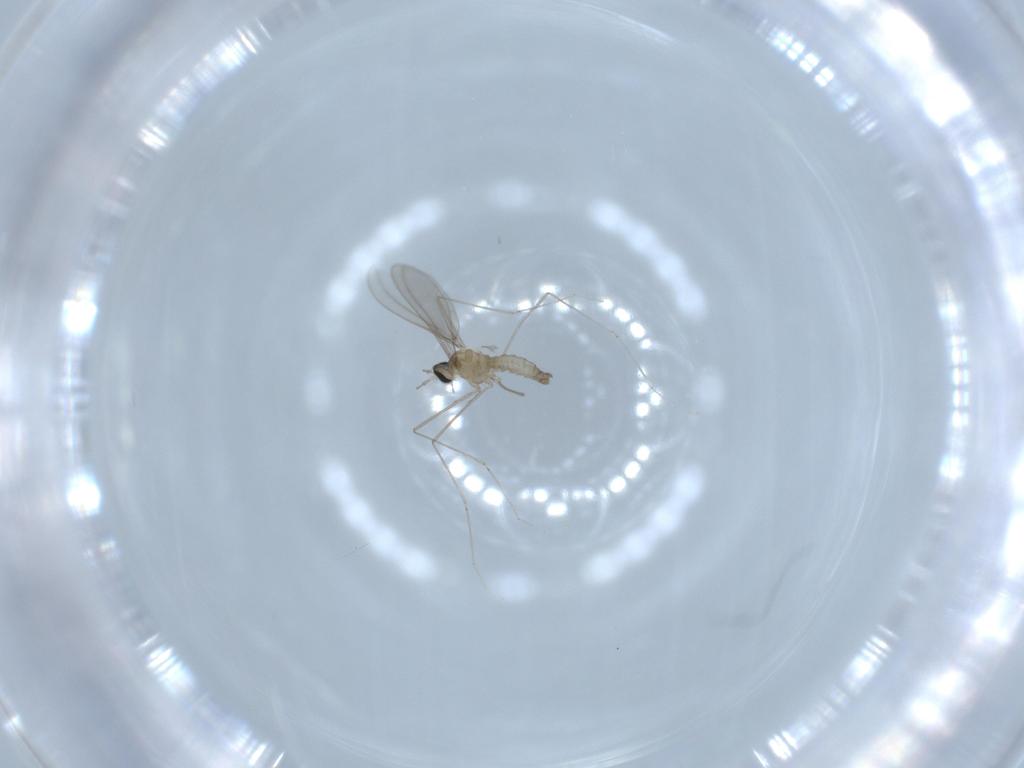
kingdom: Animalia
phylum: Arthropoda
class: Insecta
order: Diptera
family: Cecidomyiidae
